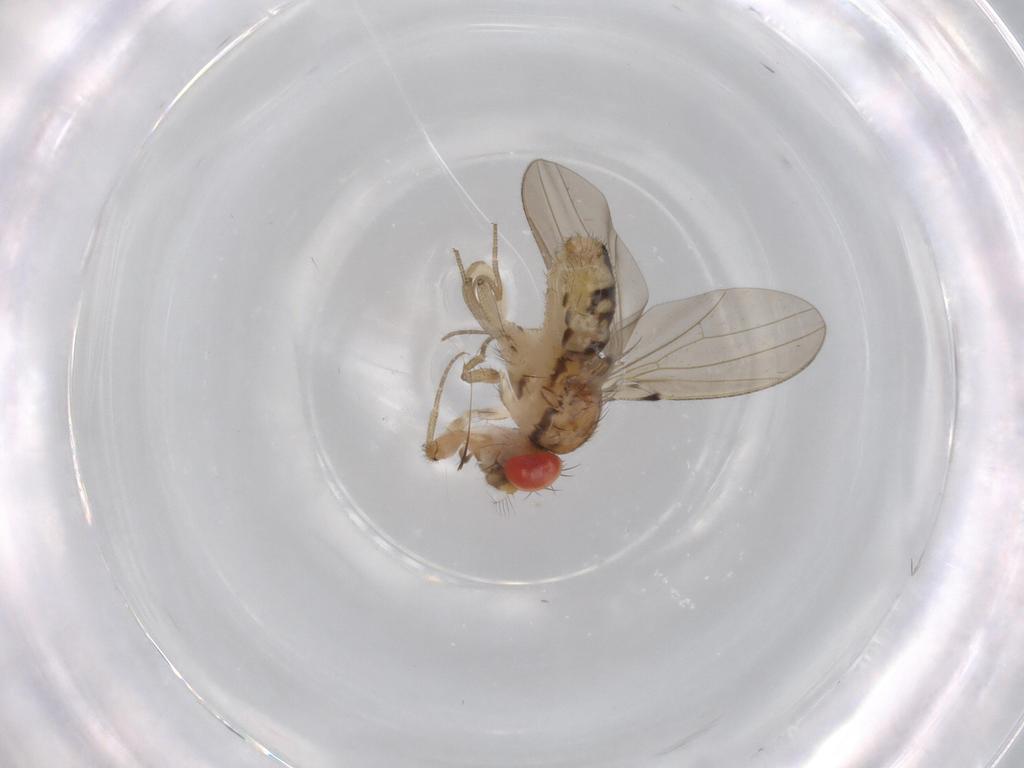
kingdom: Animalia
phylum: Arthropoda
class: Insecta
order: Diptera
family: Drosophilidae
